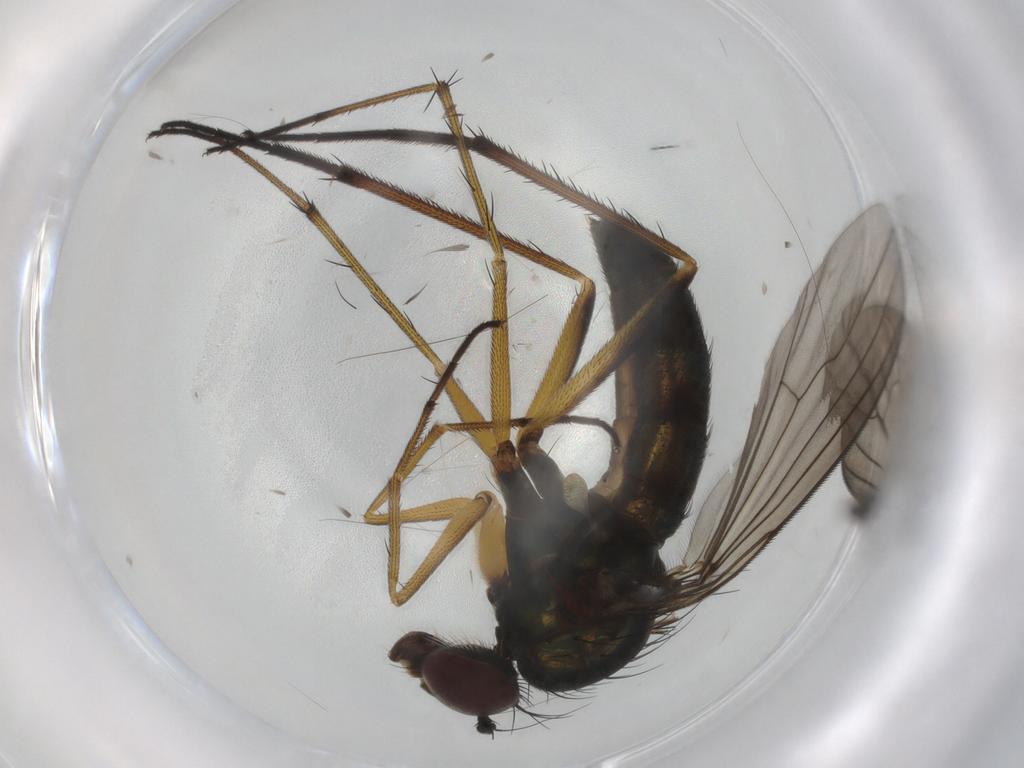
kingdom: Animalia
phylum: Arthropoda
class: Insecta
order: Diptera
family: Dolichopodidae
